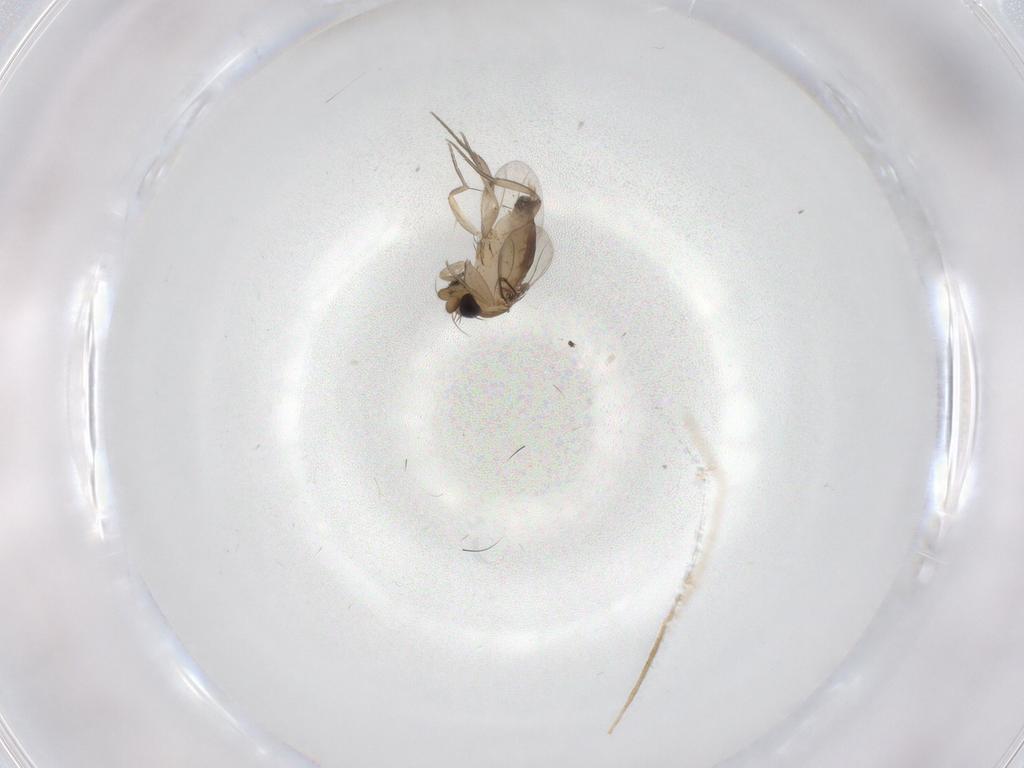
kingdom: Animalia
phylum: Arthropoda
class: Insecta
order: Diptera
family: Phoridae
